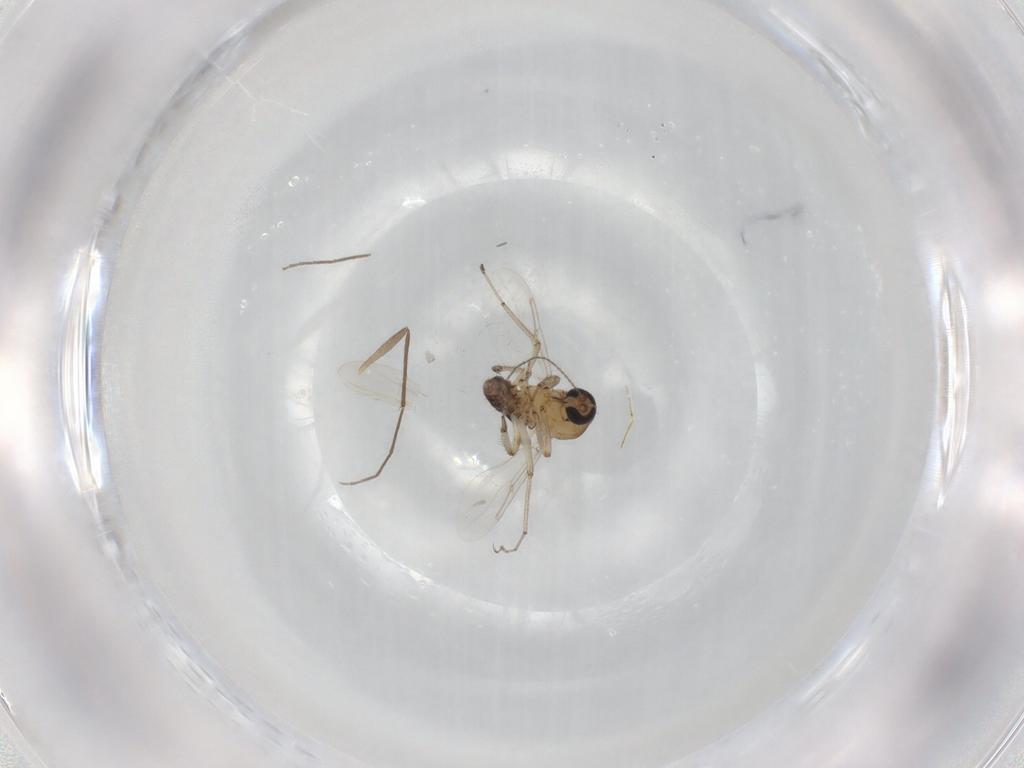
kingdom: Animalia
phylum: Arthropoda
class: Insecta
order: Diptera
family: Chironomidae
